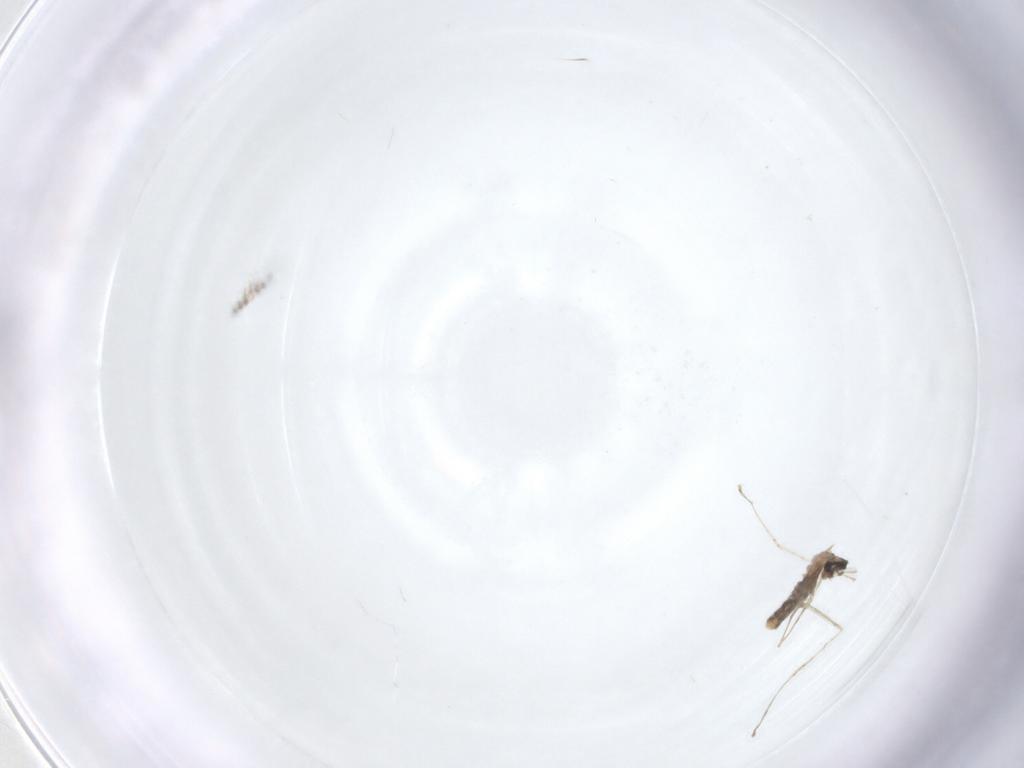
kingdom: Animalia
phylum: Arthropoda
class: Insecta
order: Diptera
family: Cecidomyiidae
